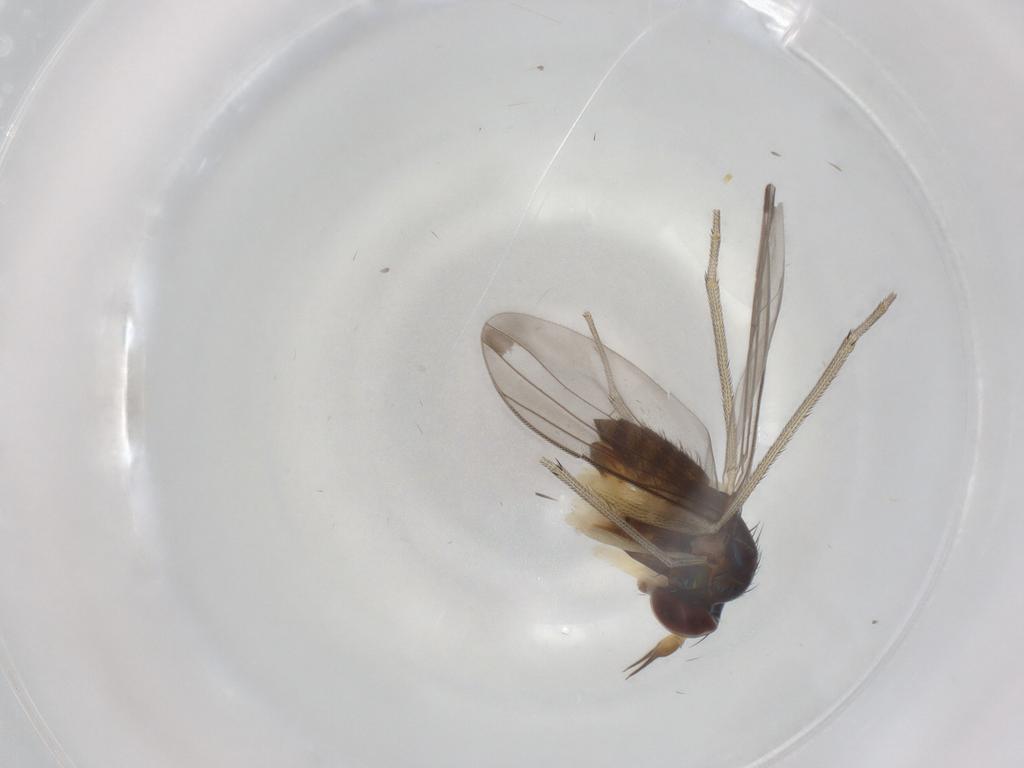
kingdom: Animalia
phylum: Arthropoda
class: Insecta
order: Diptera
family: Dolichopodidae
